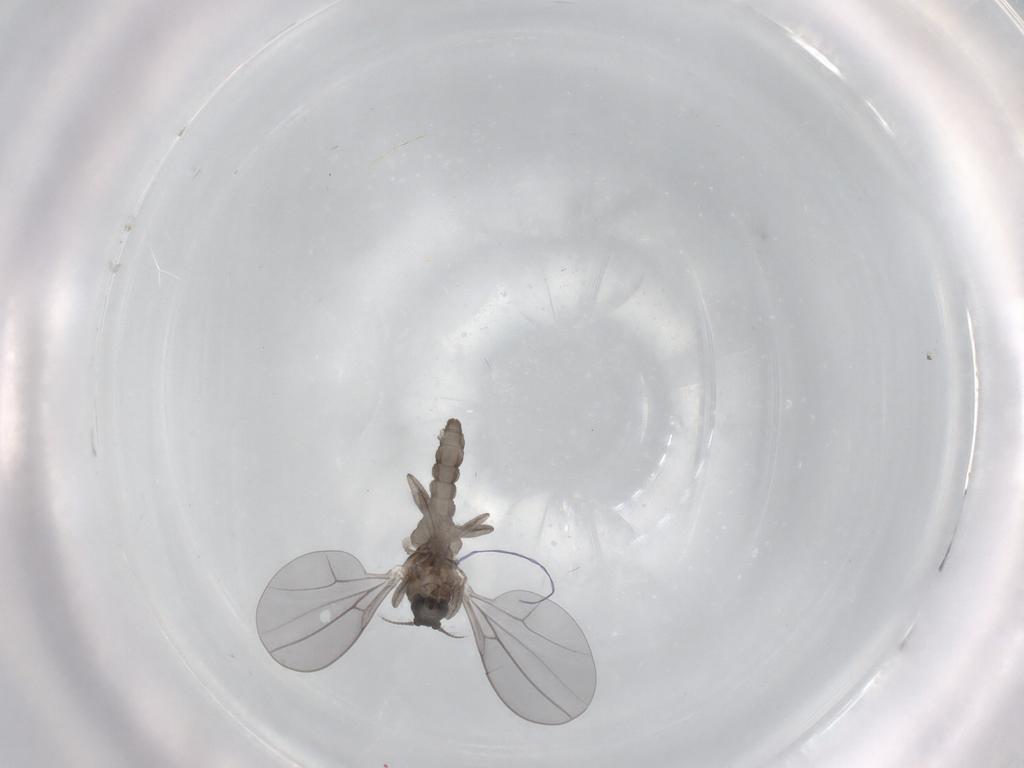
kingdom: Animalia
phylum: Arthropoda
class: Insecta
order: Diptera
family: Cecidomyiidae
